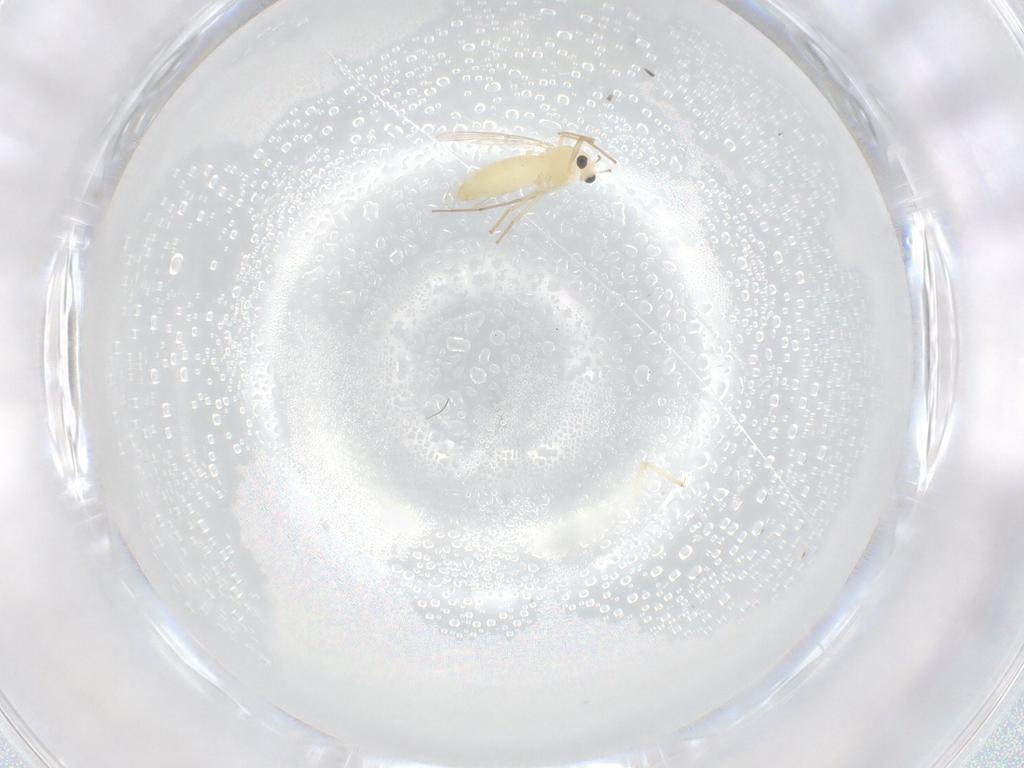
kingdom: Animalia
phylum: Arthropoda
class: Insecta
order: Diptera
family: Chironomidae
